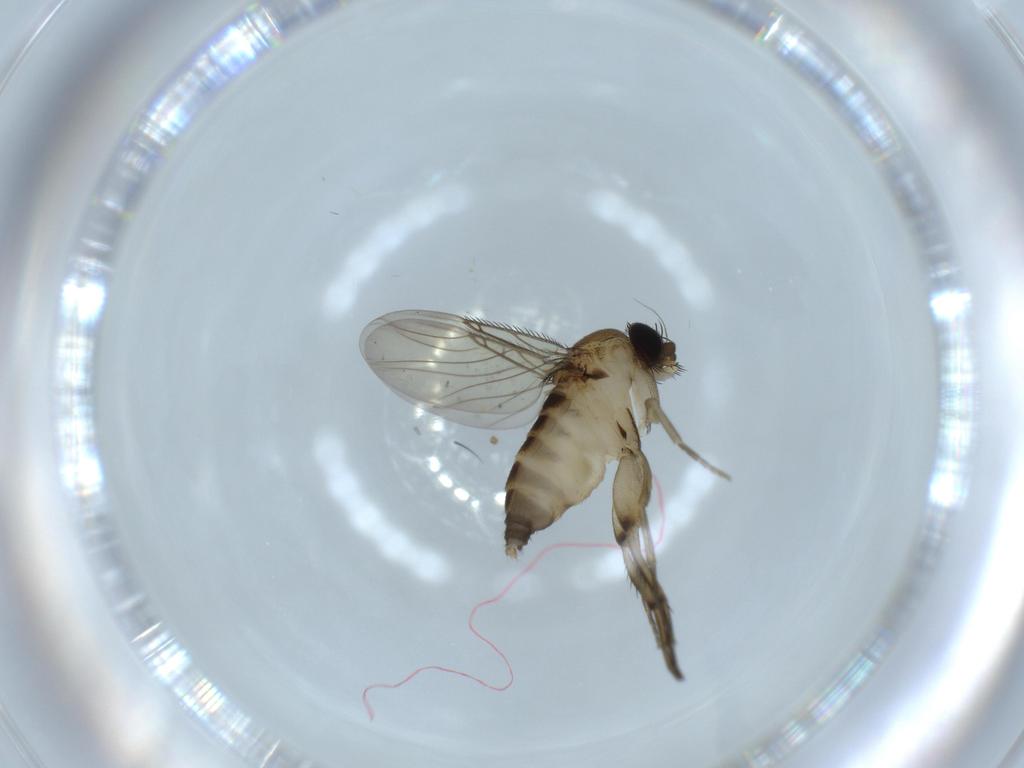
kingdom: Animalia
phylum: Arthropoda
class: Insecta
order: Diptera
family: Phoridae
